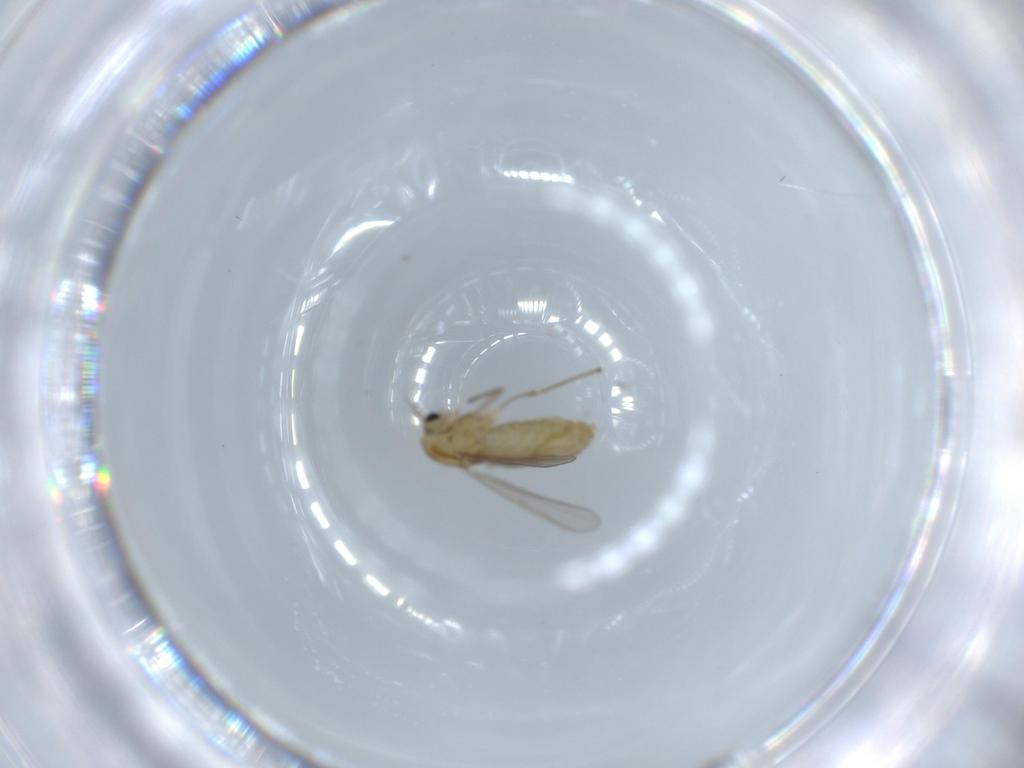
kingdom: Animalia
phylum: Arthropoda
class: Insecta
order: Diptera
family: Chironomidae
